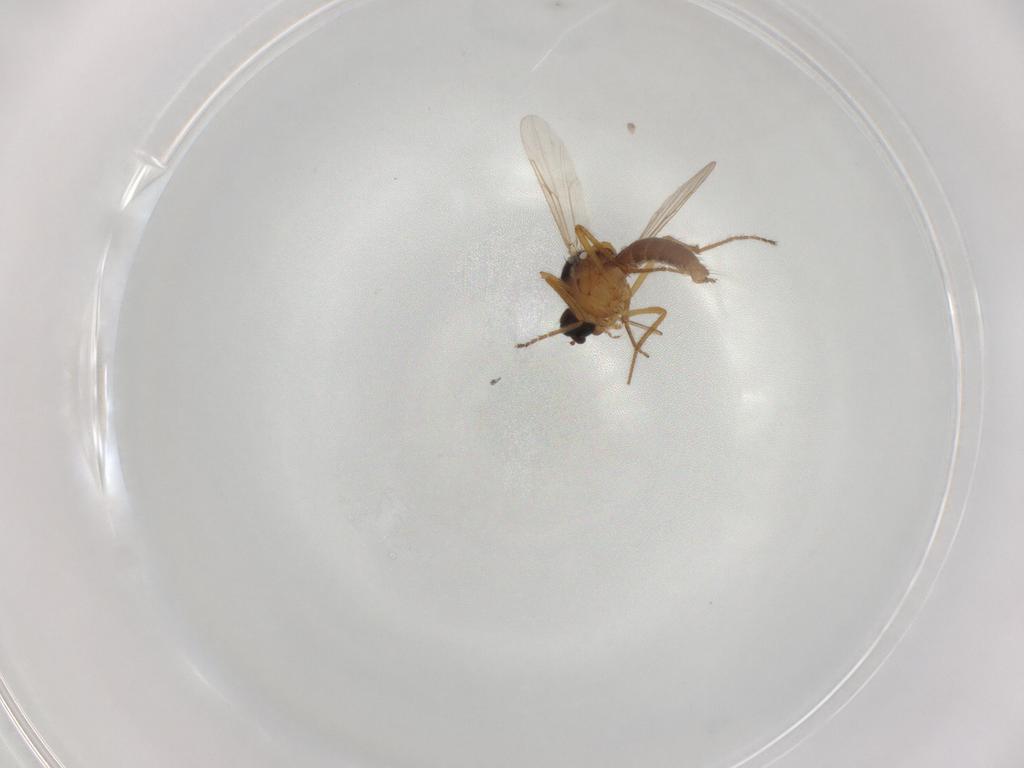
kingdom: Animalia
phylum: Arthropoda
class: Insecta
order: Diptera
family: Ceratopogonidae
